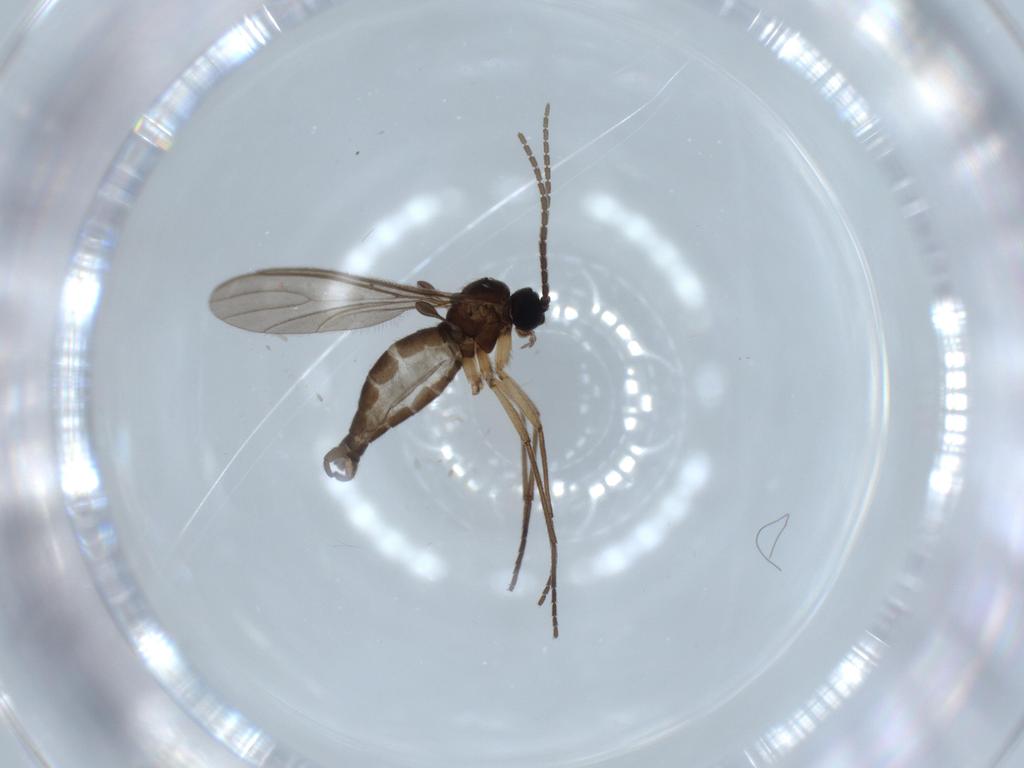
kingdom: Animalia
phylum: Arthropoda
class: Insecta
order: Diptera
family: Sciaridae
